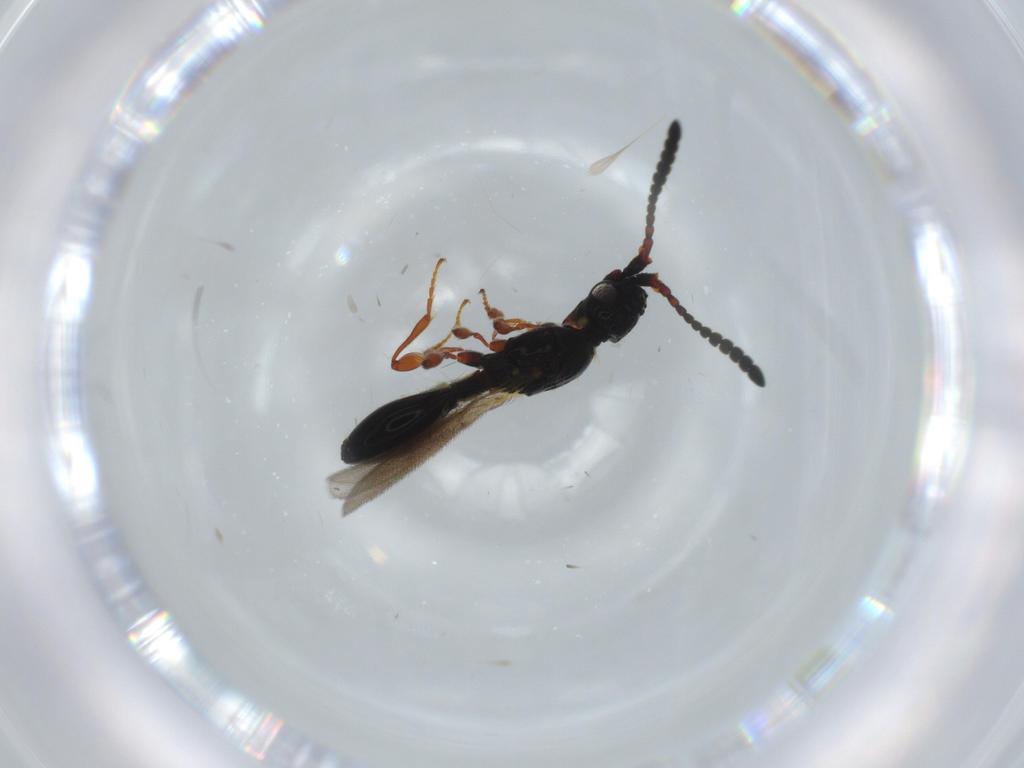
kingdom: Animalia
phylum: Arthropoda
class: Insecta
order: Hymenoptera
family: Diapriidae
